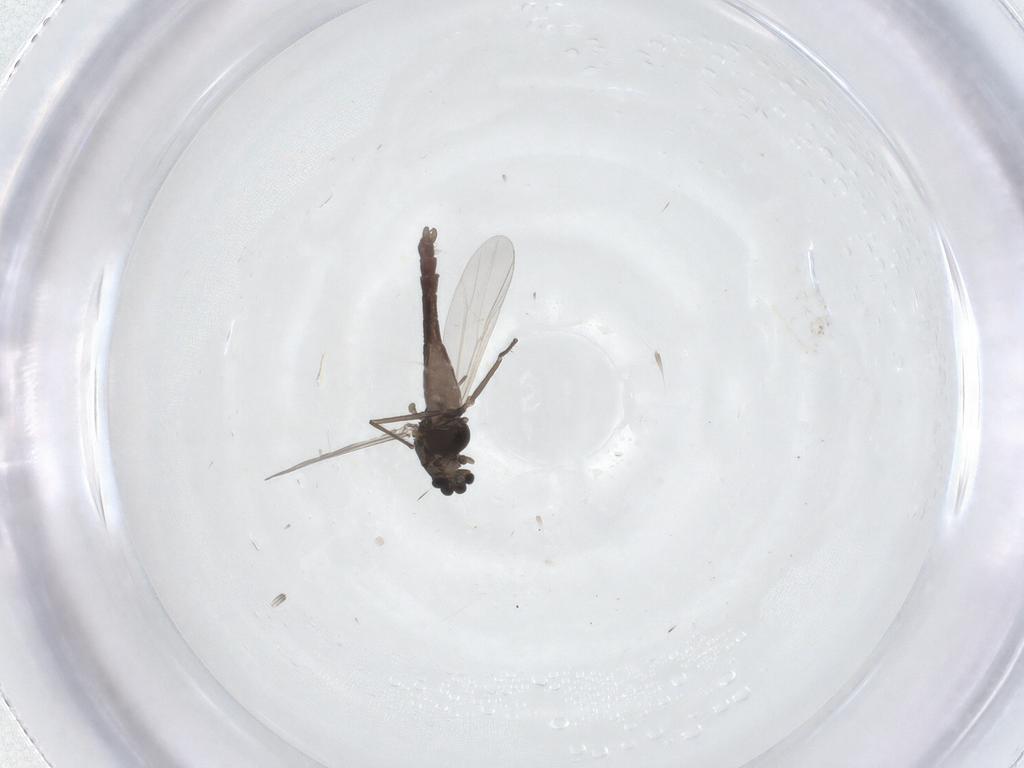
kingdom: Animalia
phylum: Arthropoda
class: Insecta
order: Diptera
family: Chironomidae
